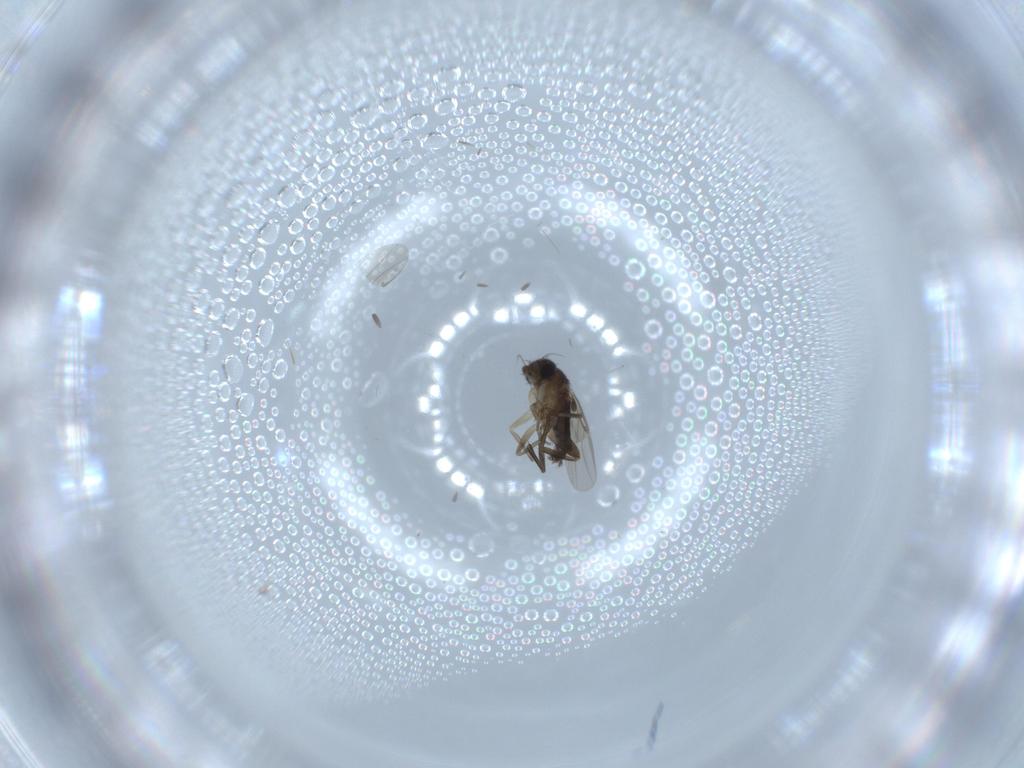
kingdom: Animalia
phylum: Arthropoda
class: Insecta
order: Diptera
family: Phoridae
